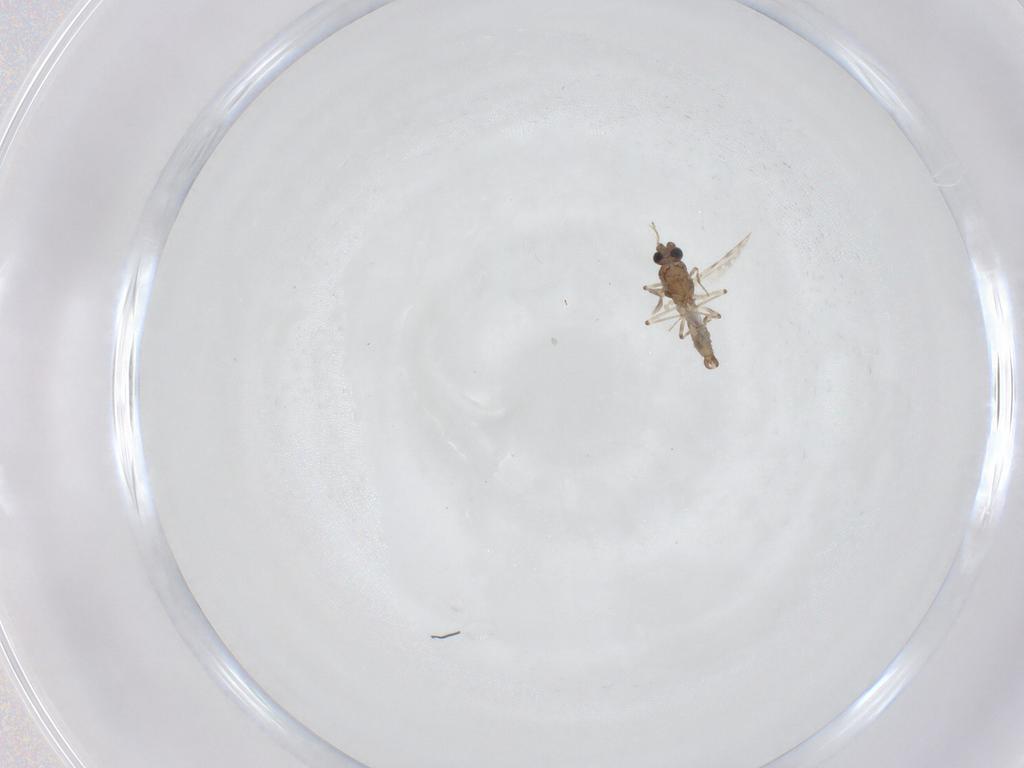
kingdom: Animalia
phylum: Arthropoda
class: Insecta
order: Diptera
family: Ceratopogonidae
